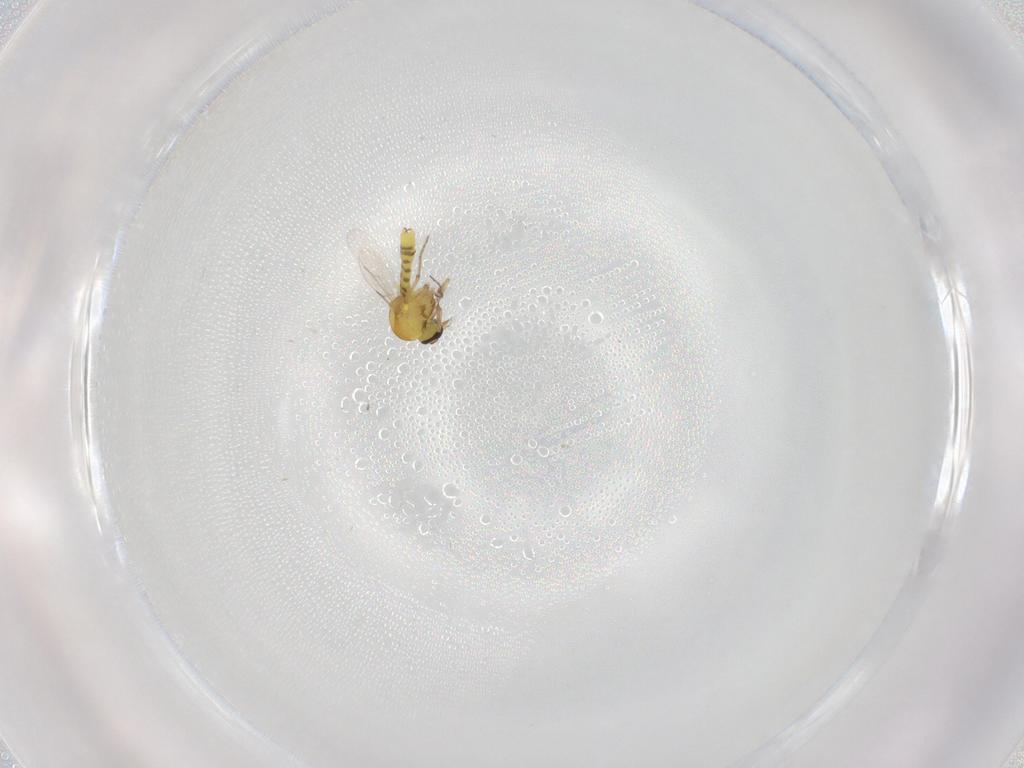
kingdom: Animalia
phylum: Arthropoda
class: Insecta
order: Diptera
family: Ceratopogonidae
